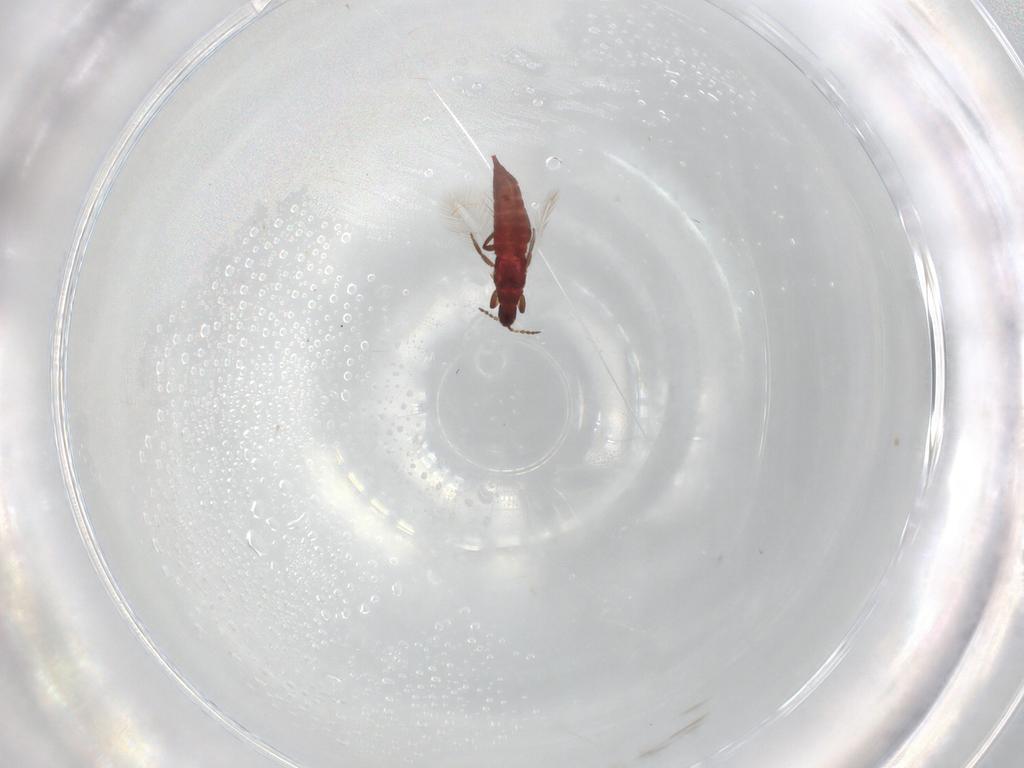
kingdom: Animalia
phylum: Arthropoda
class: Insecta
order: Thysanoptera
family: Phlaeothripidae
